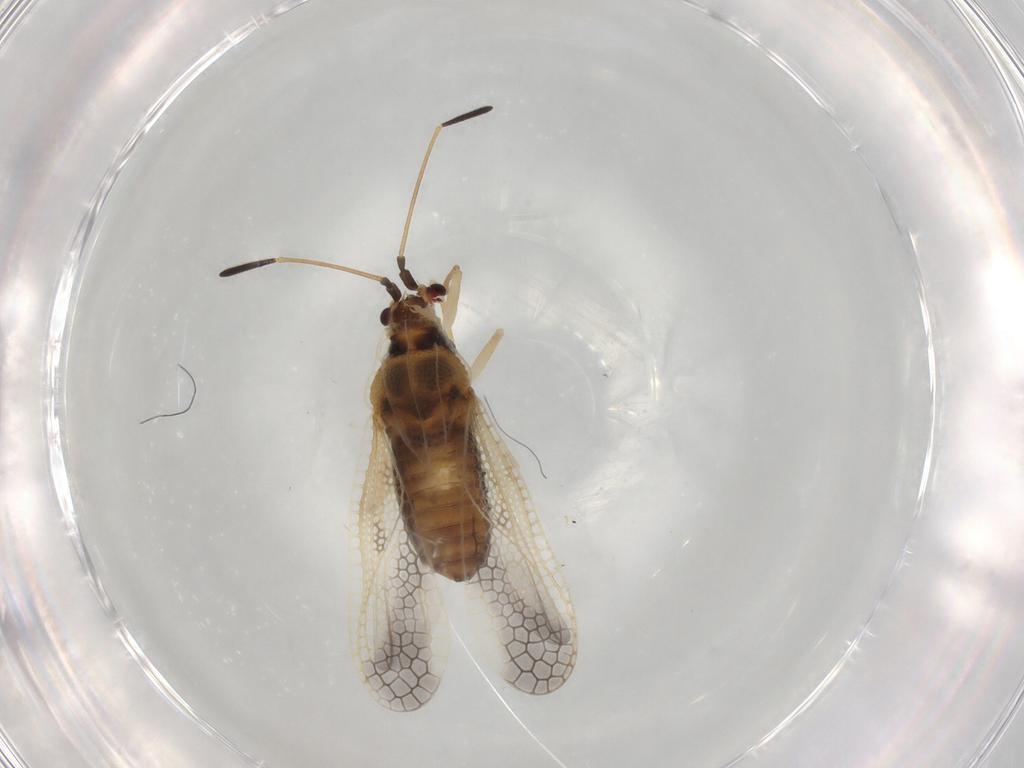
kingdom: Animalia
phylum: Arthropoda
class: Insecta
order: Hemiptera
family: Tingidae
